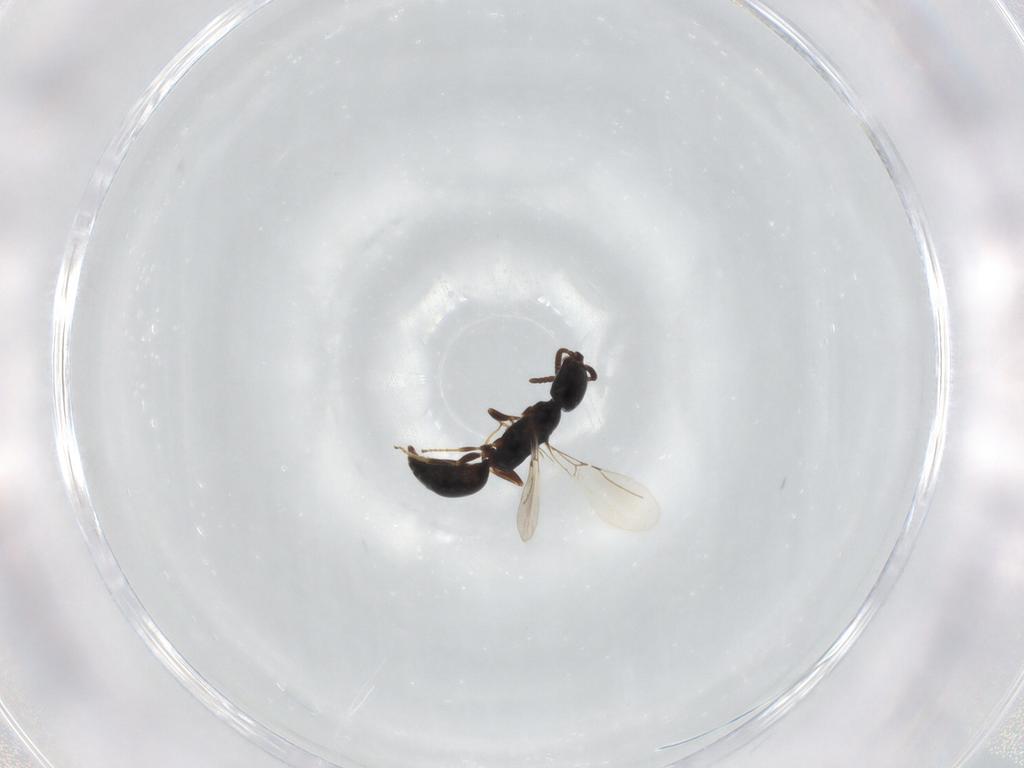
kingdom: Animalia
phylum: Arthropoda
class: Insecta
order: Hymenoptera
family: Bethylidae
